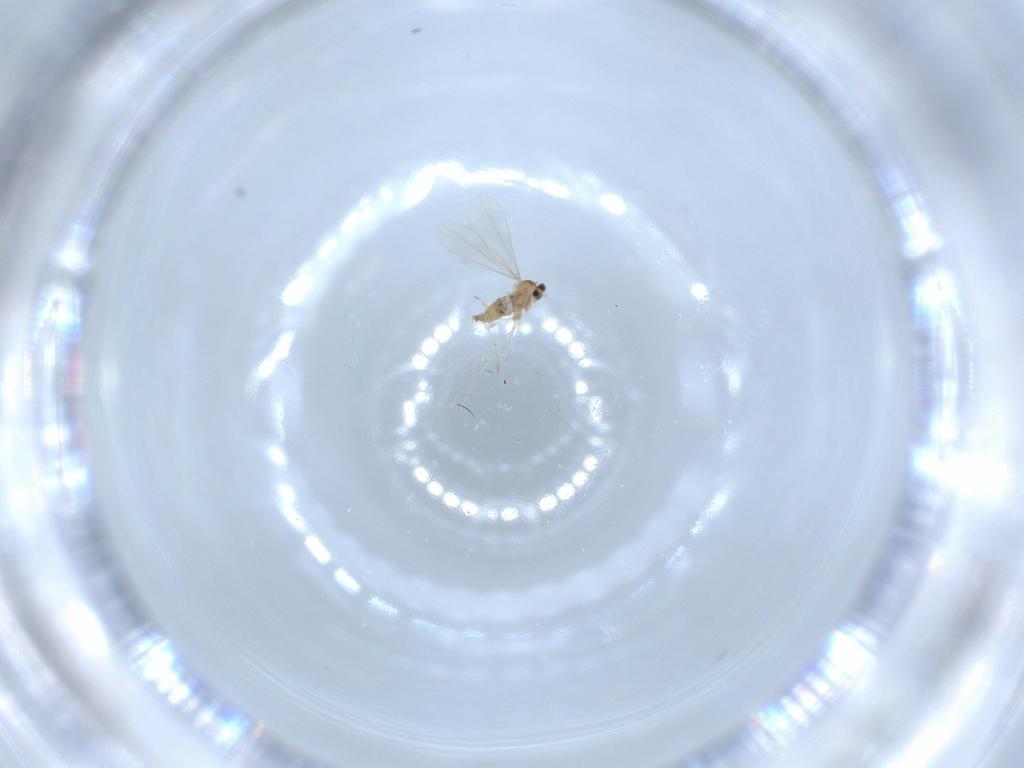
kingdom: Animalia
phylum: Arthropoda
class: Insecta
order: Diptera
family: Cecidomyiidae
